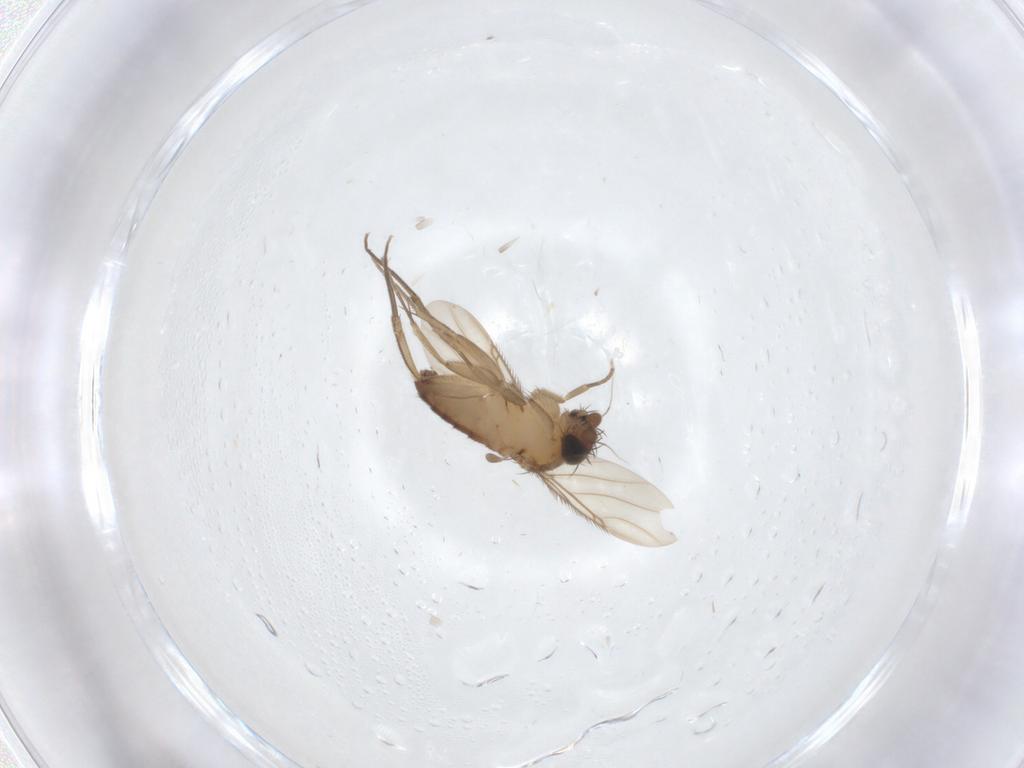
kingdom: Animalia
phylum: Arthropoda
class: Insecta
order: Diptera
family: Phoridae
